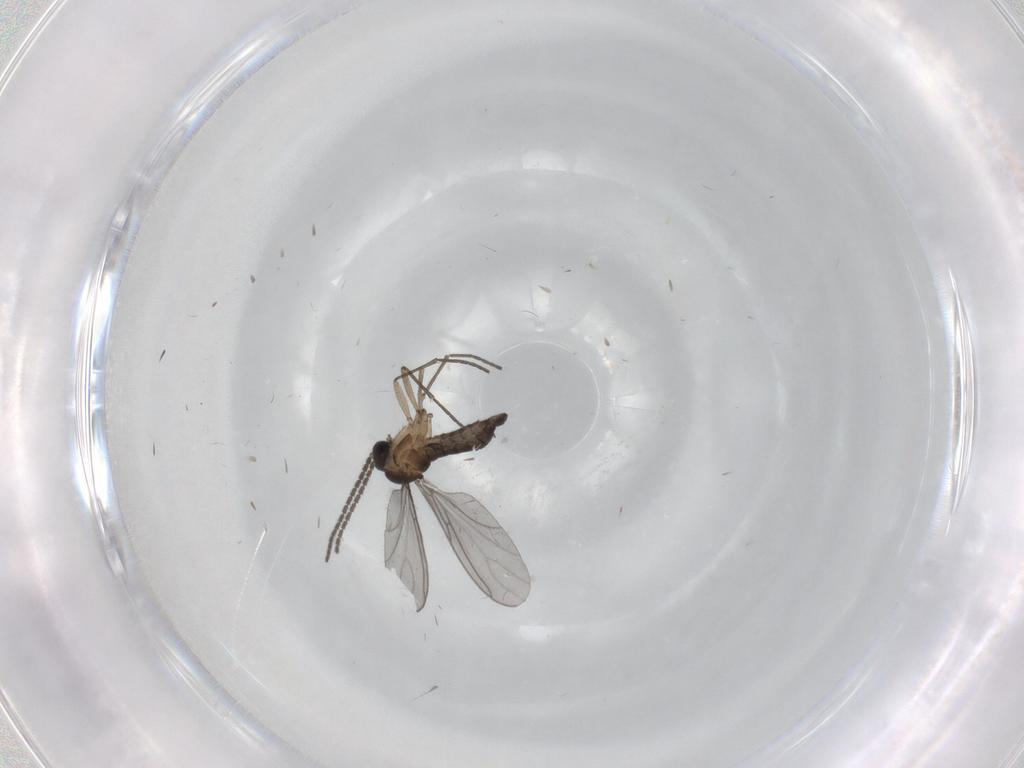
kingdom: Animalia
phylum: Arthropoda
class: Insecta
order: Diptera
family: Sciaridae
